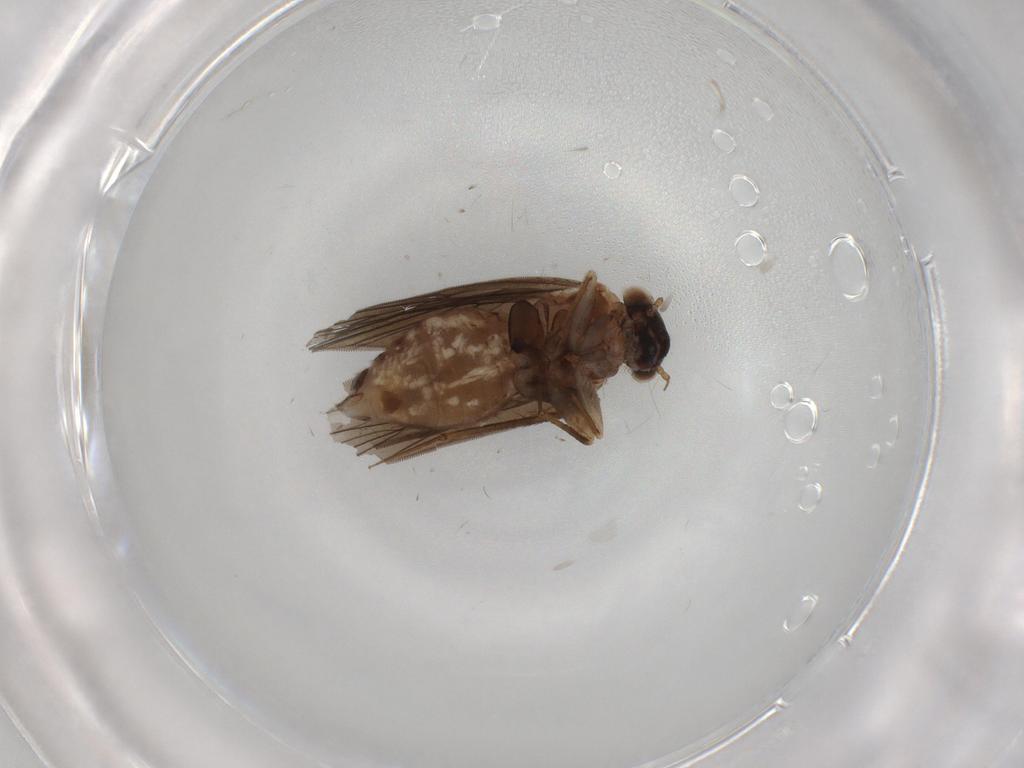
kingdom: Animalia
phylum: Arthropoda
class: Insecta
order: Psocodea
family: Lepidopsocidae
